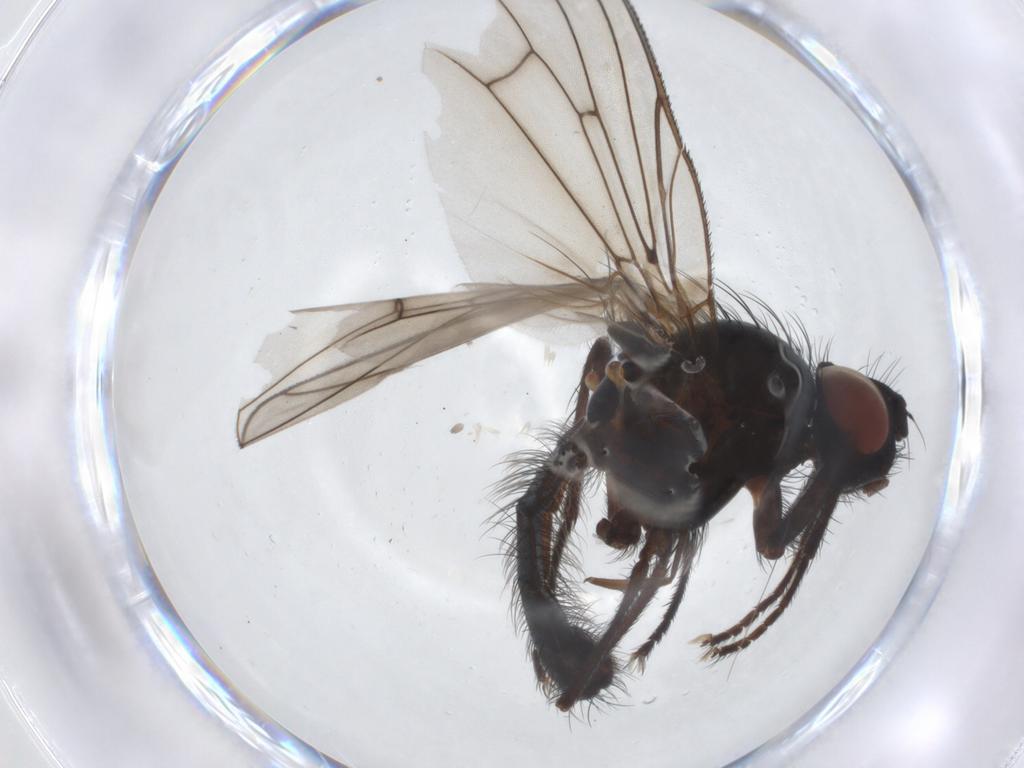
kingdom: Animalia
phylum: Arthropoda
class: Insecta
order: Diptera
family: Anthomyiidae
